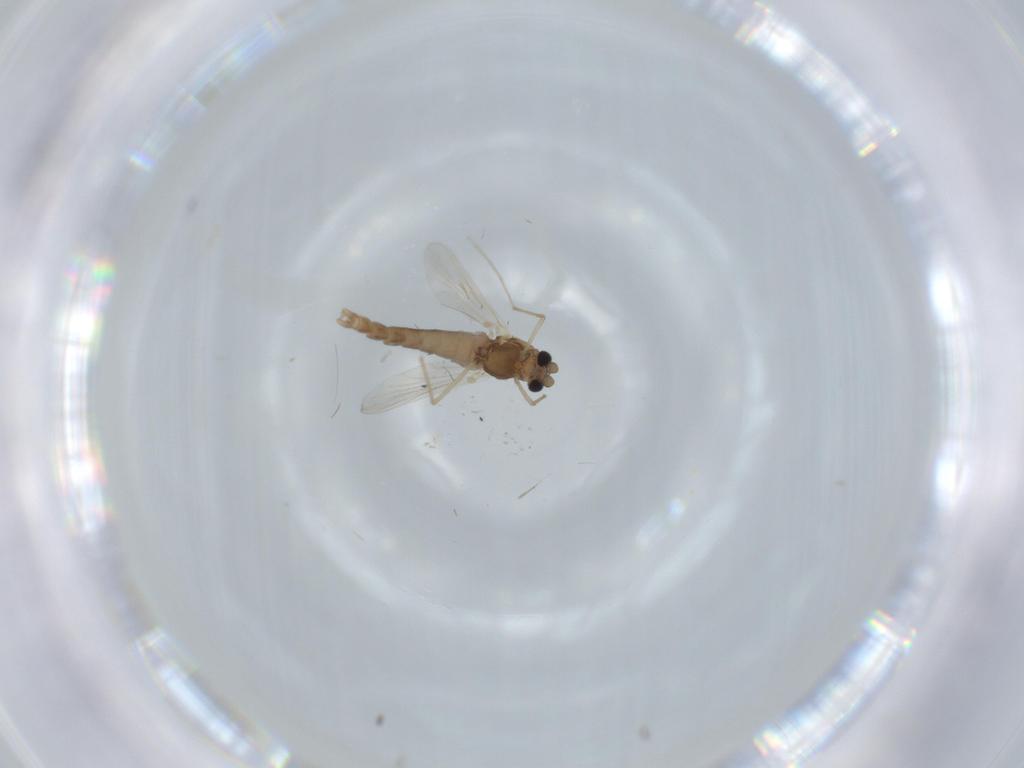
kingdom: Animalia
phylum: Arthropoda
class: Insecta
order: Diptera
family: Chironomidae
